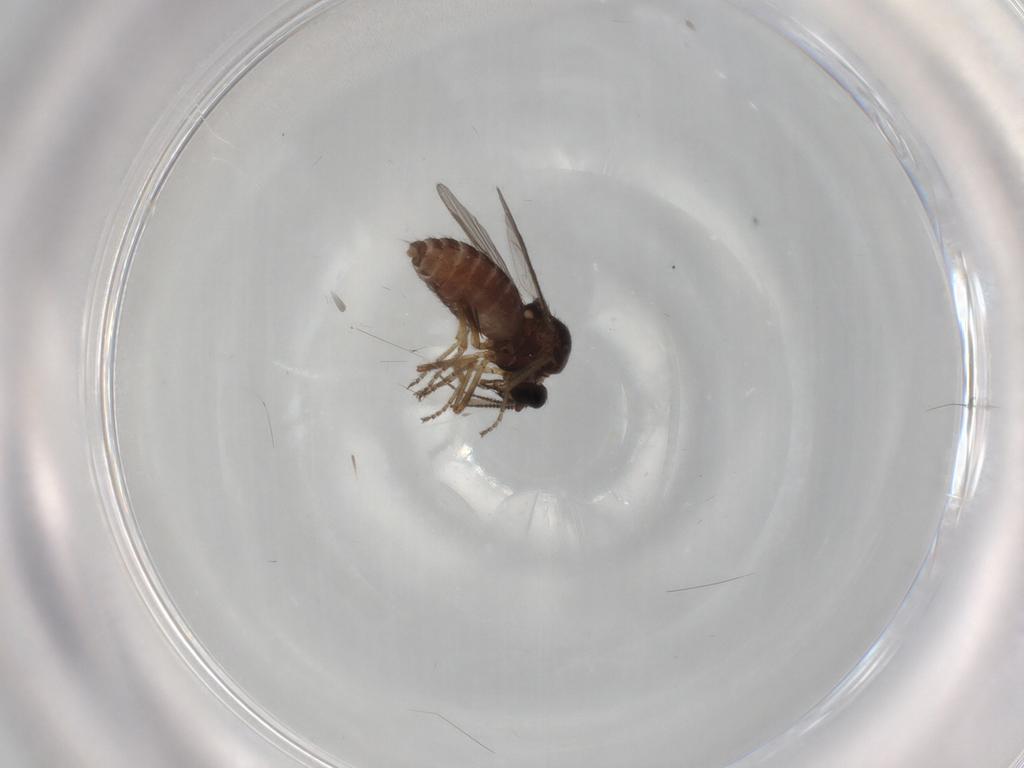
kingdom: Animalia
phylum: Arthropoda
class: Insecta
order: Diptera
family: Ceratopogonidae
